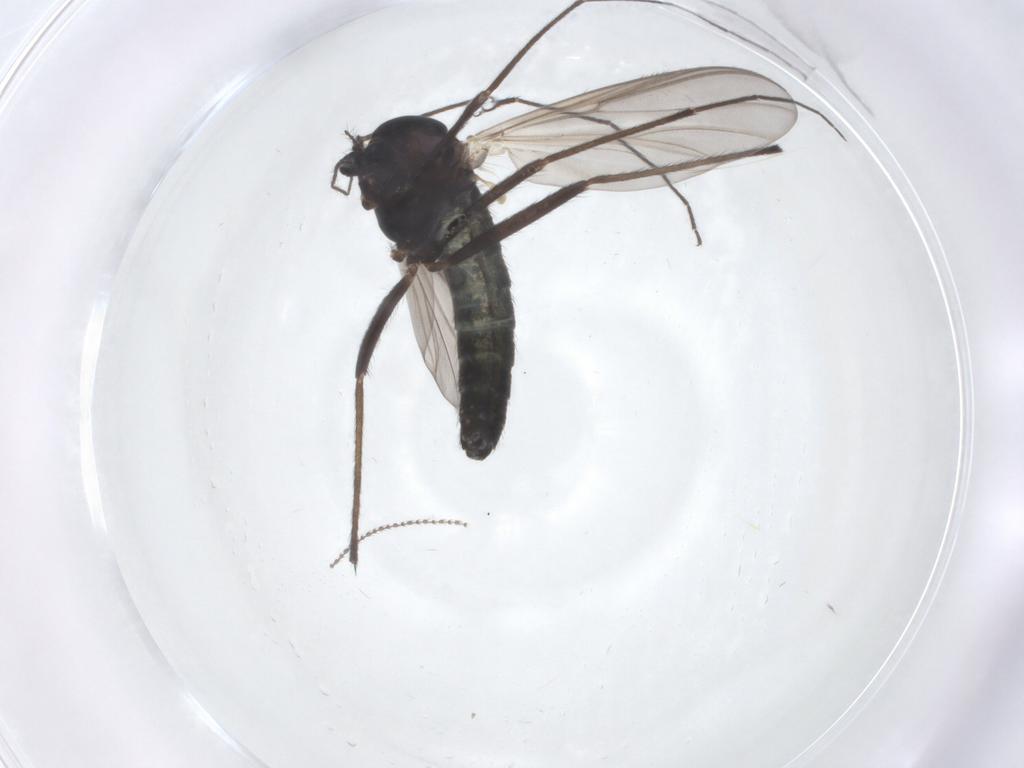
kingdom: Animalia
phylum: Arthropoda
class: Insecta
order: Diptera
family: Chironomidae
